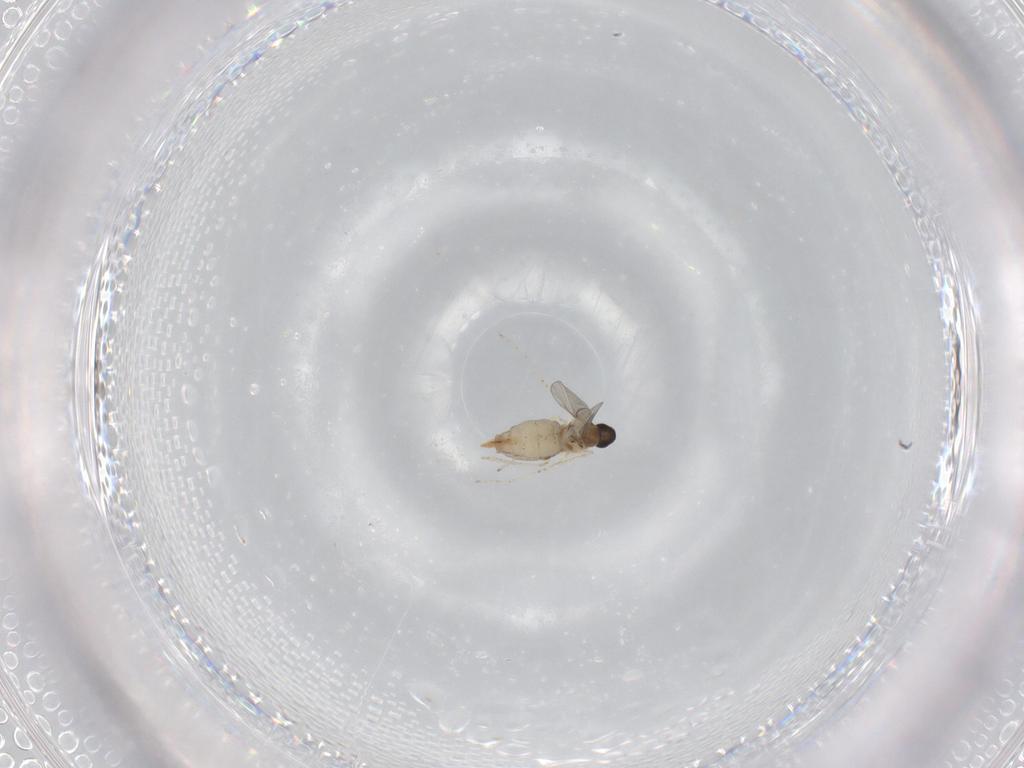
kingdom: Animalia
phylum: Arthropoda
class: Insecta
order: Diptera
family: Cecidomyiidae
